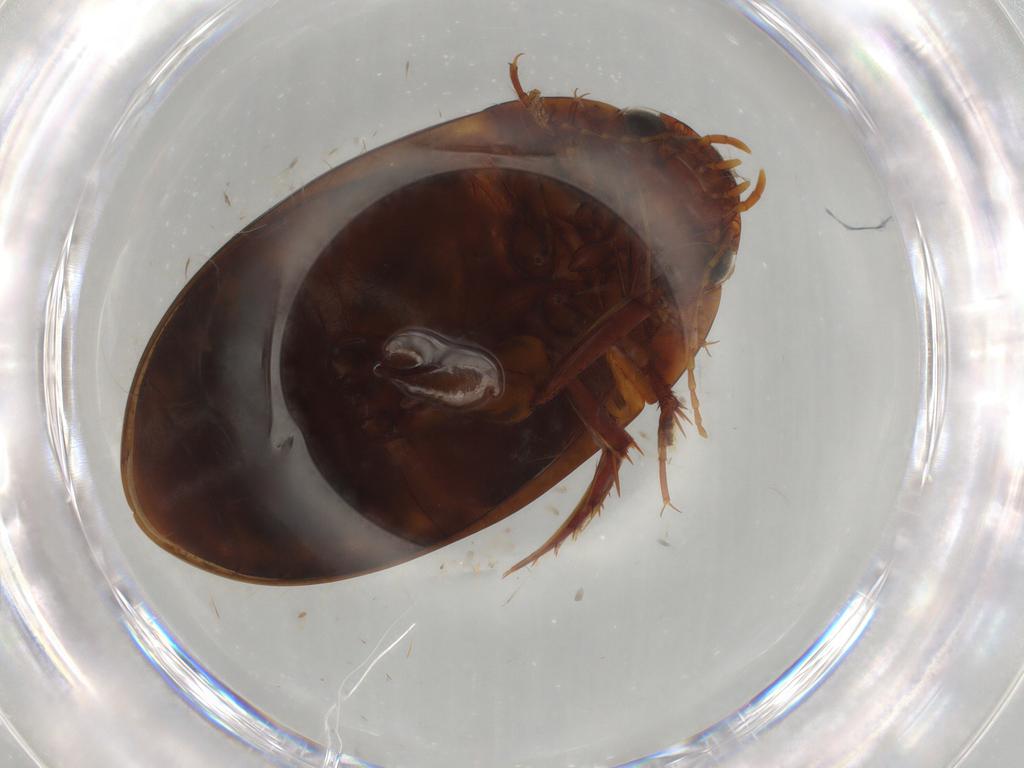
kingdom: Animalia
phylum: Arthropoda
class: Insecta
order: Coleoptera
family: Dytiscidae
